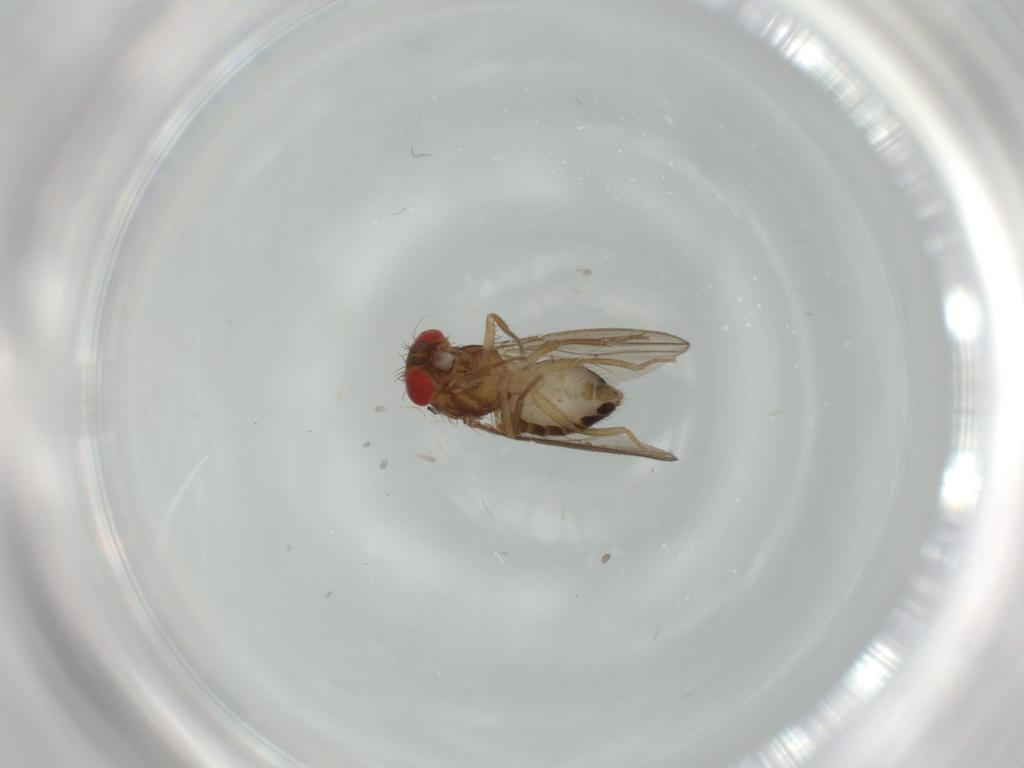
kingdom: Animalia
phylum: Arthropoda
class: Insecta
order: Diptera
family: Drosophilidae
